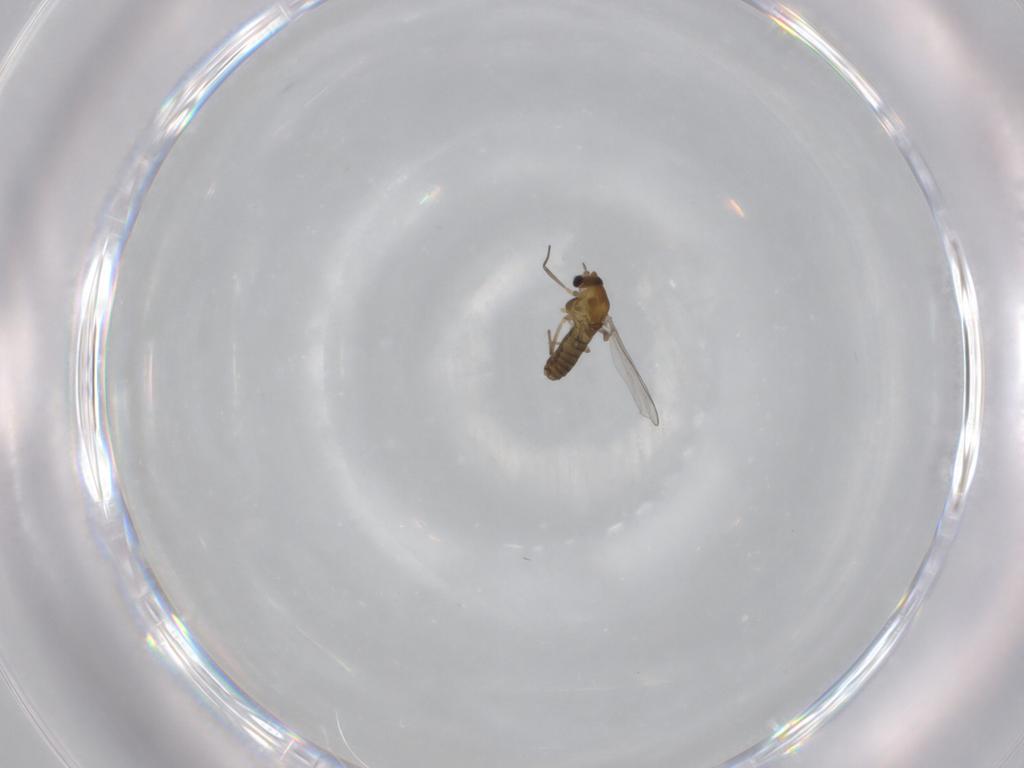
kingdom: Animalia
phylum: Arthropoda
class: Insecta
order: Diptera
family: Chironomidae
